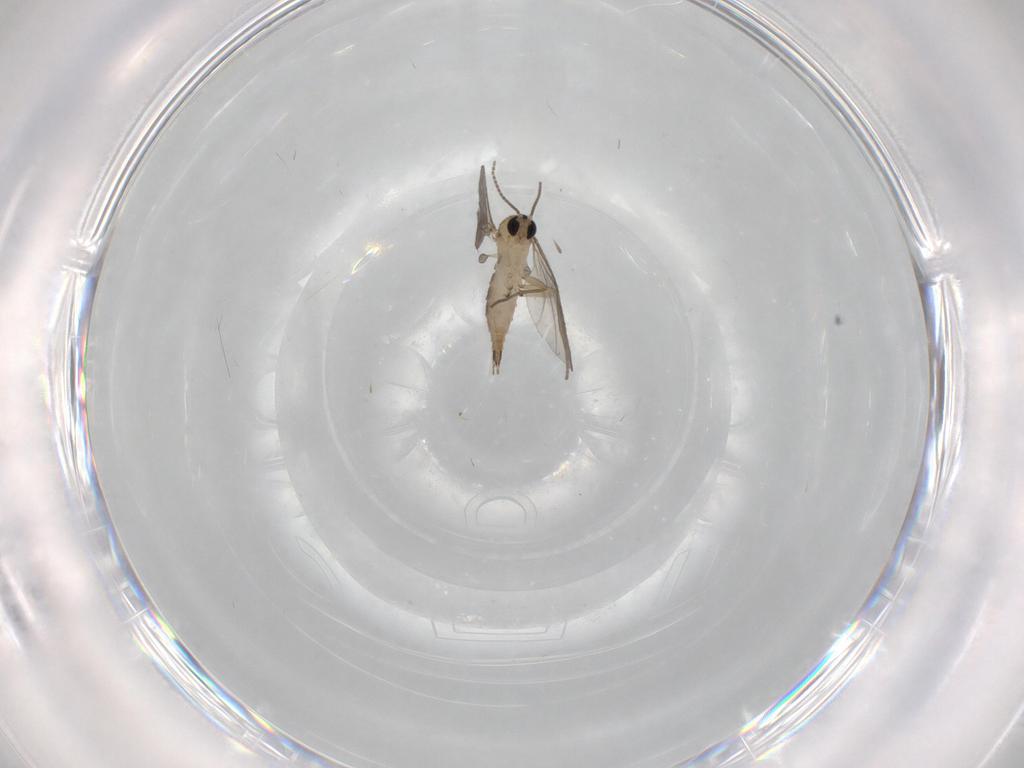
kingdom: Animalia
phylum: Arthropoda
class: Insecta
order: Diptera
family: Sciaridae
